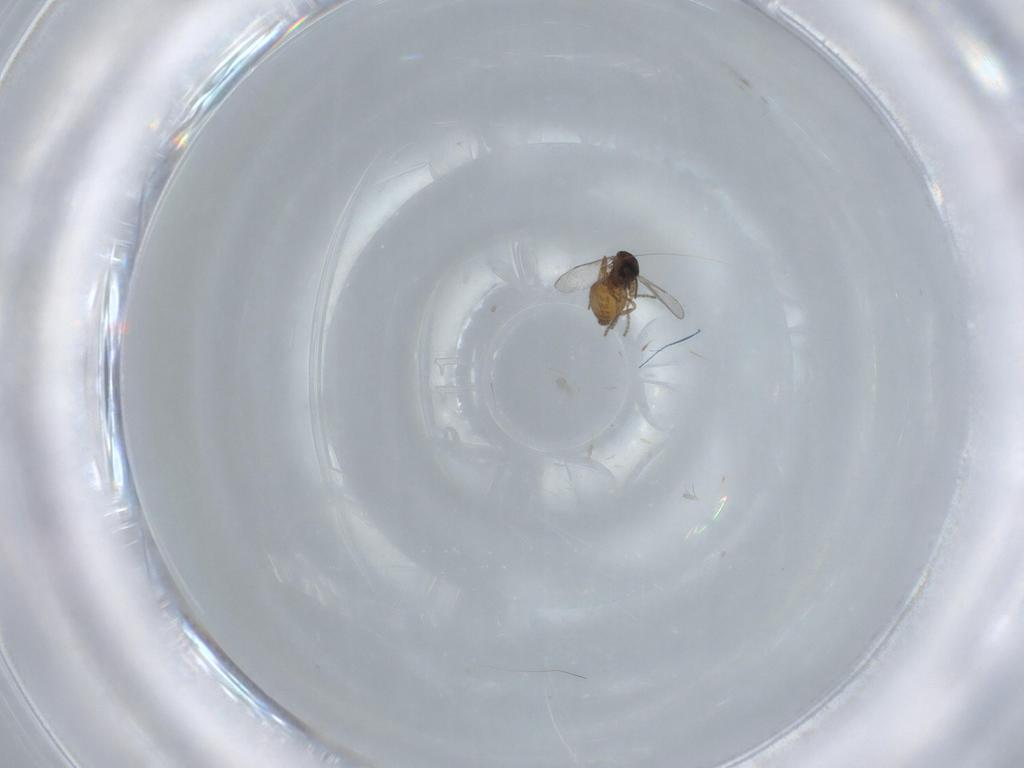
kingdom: Animalia
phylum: Arthropoda
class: Insecta
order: Diptera
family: Ceratopogonidae
